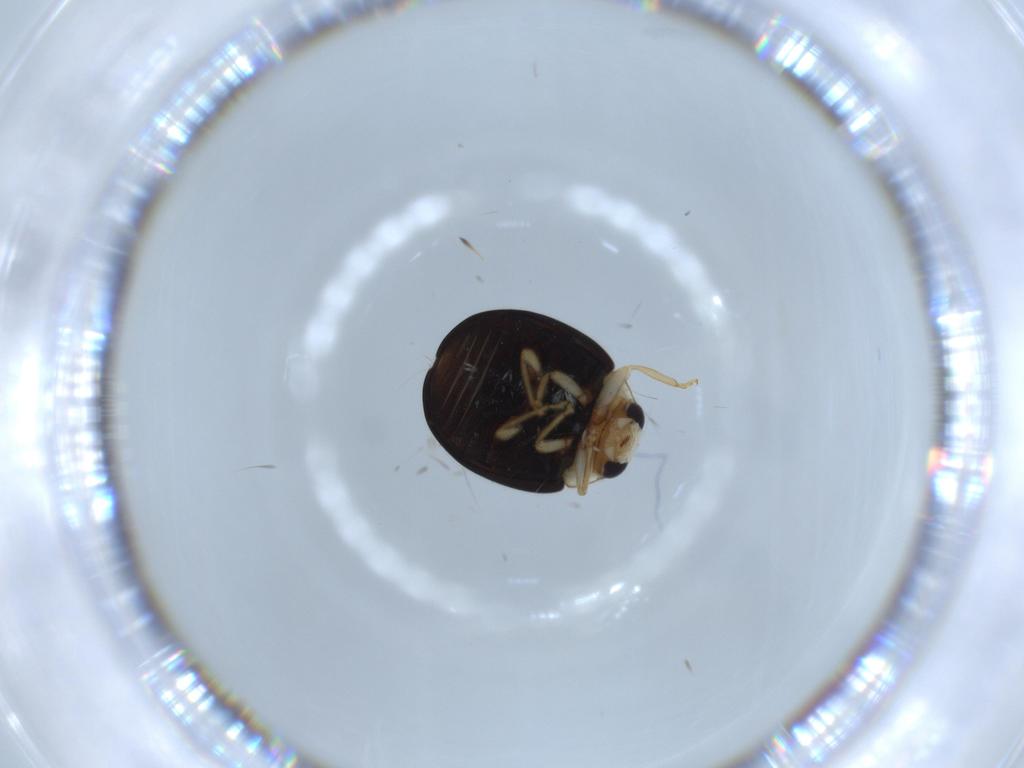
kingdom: Animalia
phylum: Arthropoda
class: Insecta
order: Coleoptera
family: Coccinellidae
